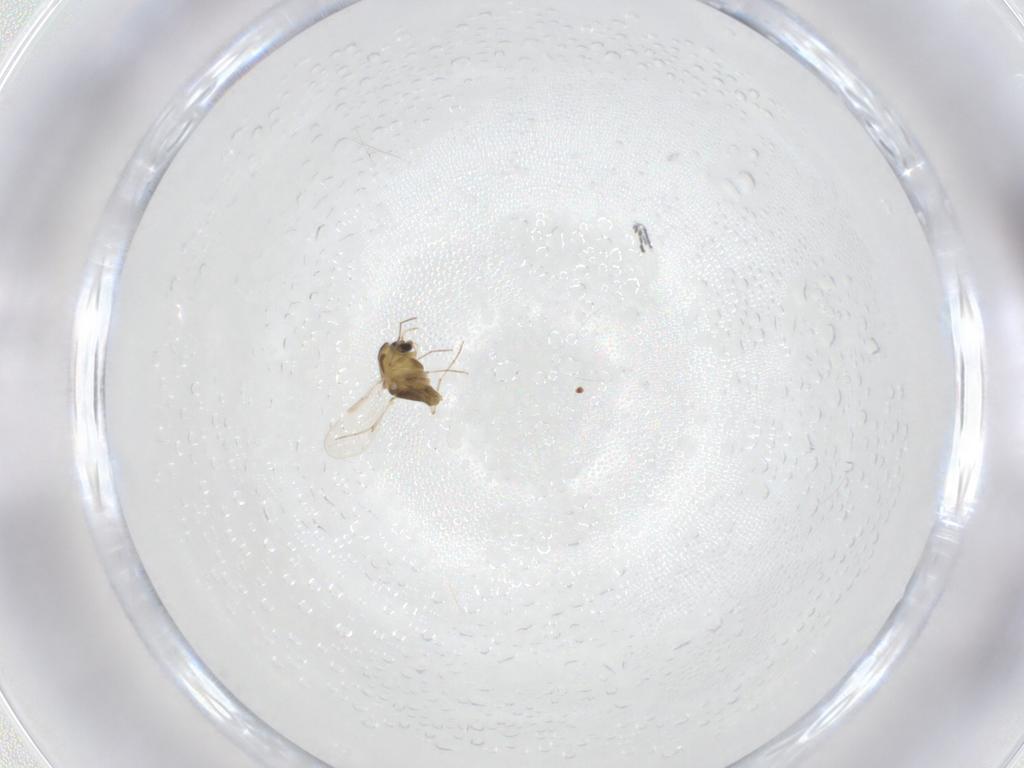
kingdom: Animalia
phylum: Arthropoda
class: Insecta
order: Diptera
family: Chironomidae
